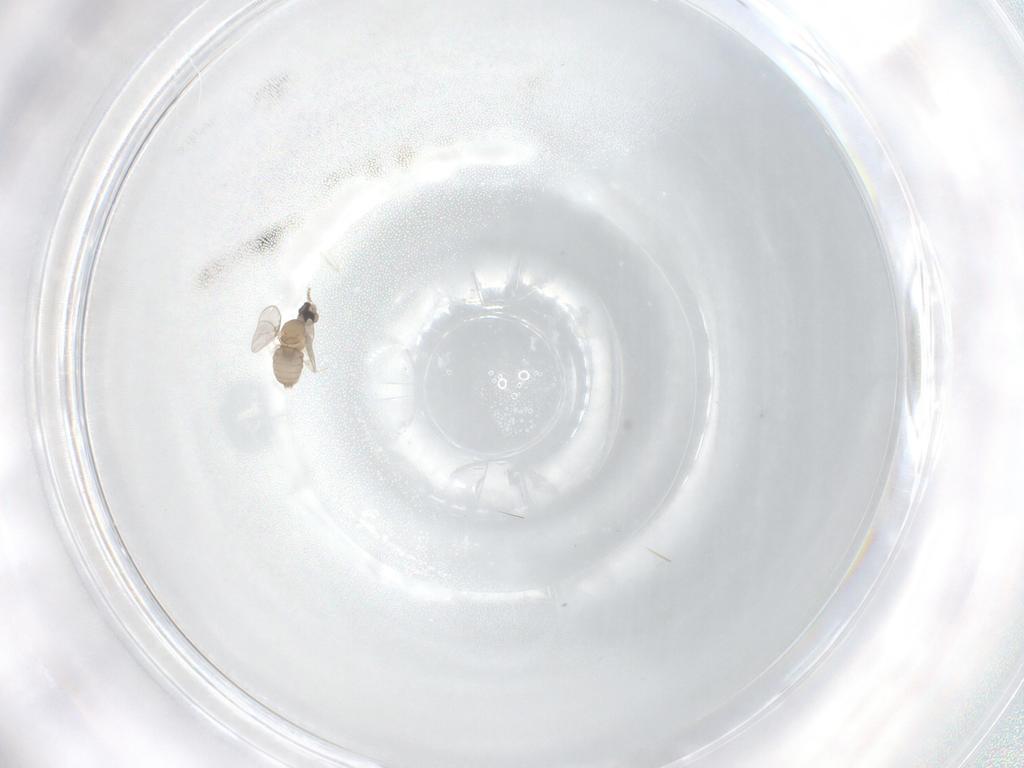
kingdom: Animalia
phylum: Arthropoda
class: Insecta
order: Diptera
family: Cecidomyiidae
